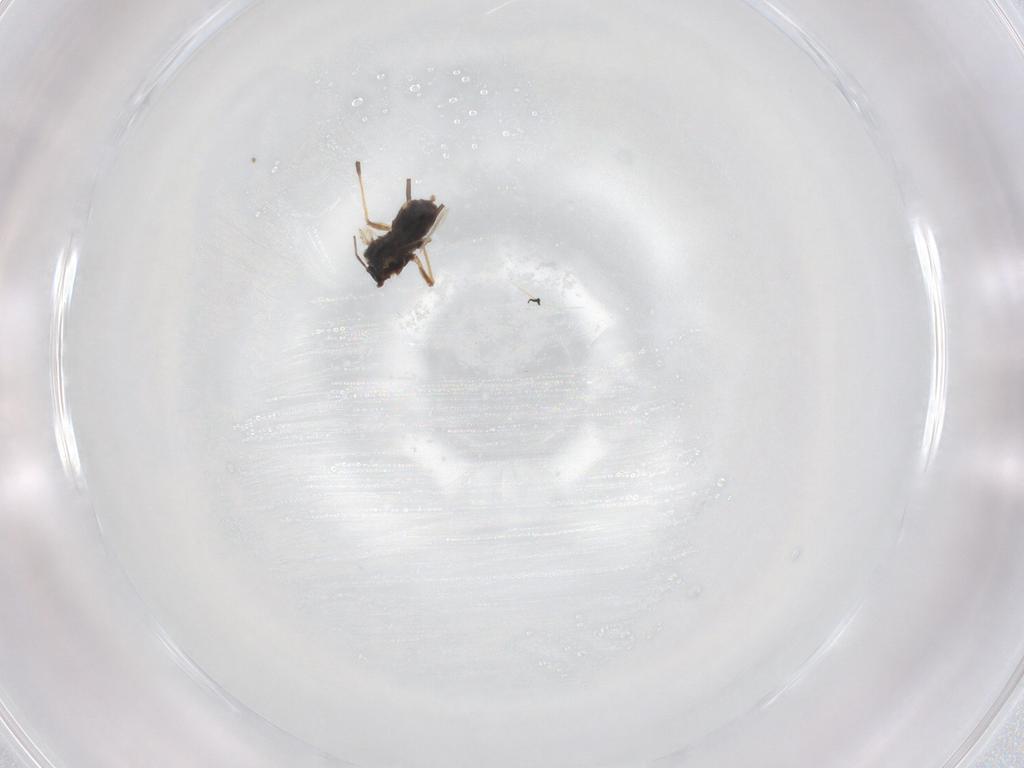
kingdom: Animalia
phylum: Arthropoda
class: Insecta
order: Hemiptera
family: Aphididae
